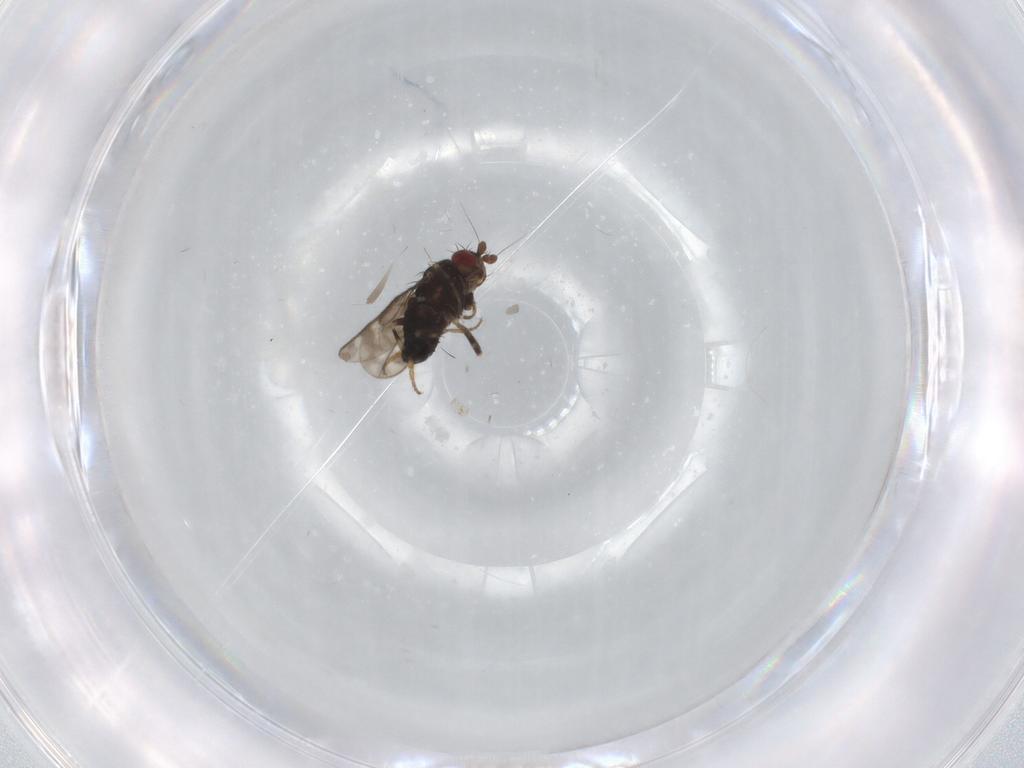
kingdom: Animalia
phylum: Arthropoda
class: Insecta
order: Diptera
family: Sphaeroceridae
